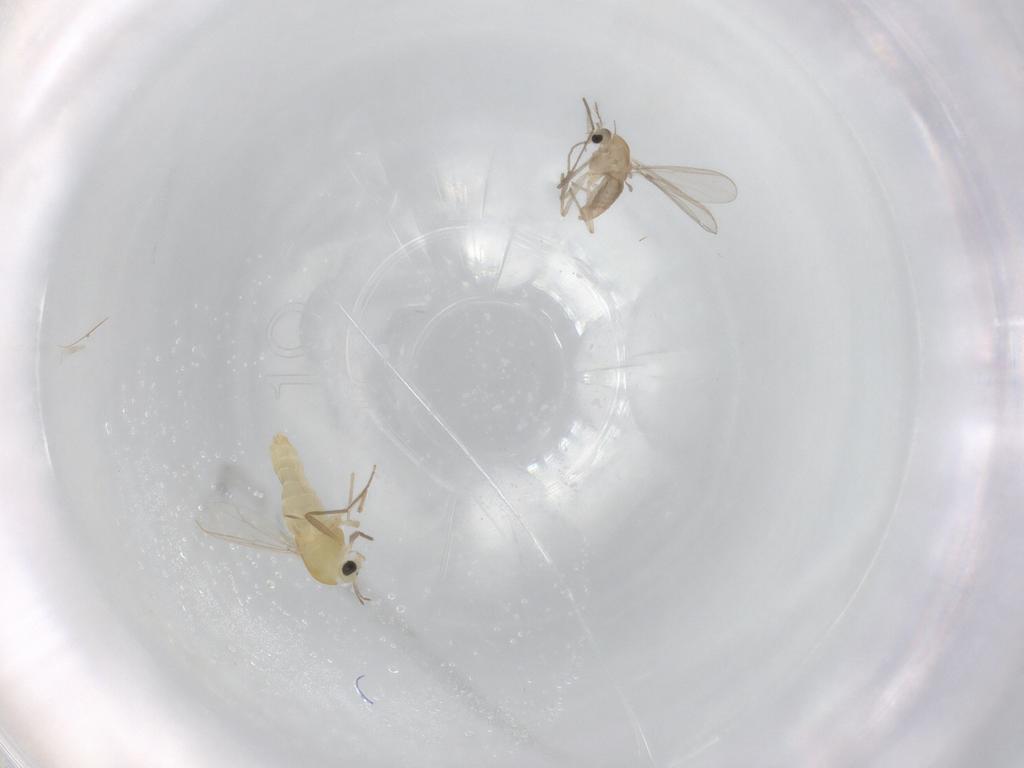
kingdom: Animalia
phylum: Arthropoda
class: Insecta
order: Diptera
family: Chironomidae
